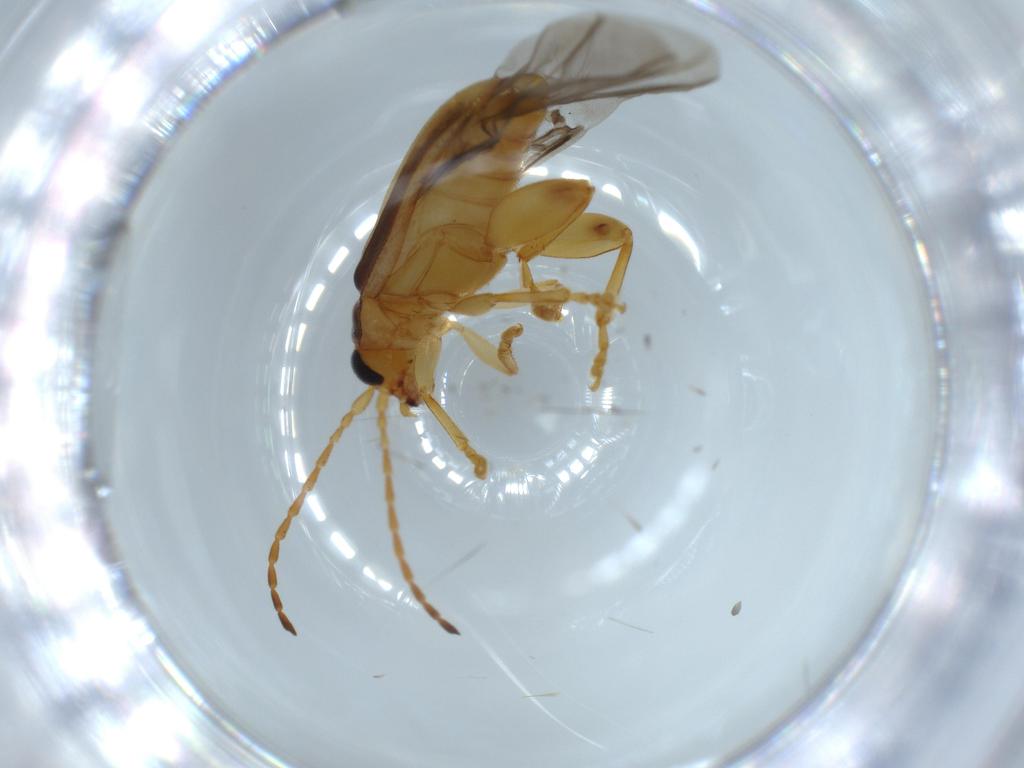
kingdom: Animalia
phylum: Arthropoda
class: Insecta
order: Coleoptera
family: Chrysomelidae
